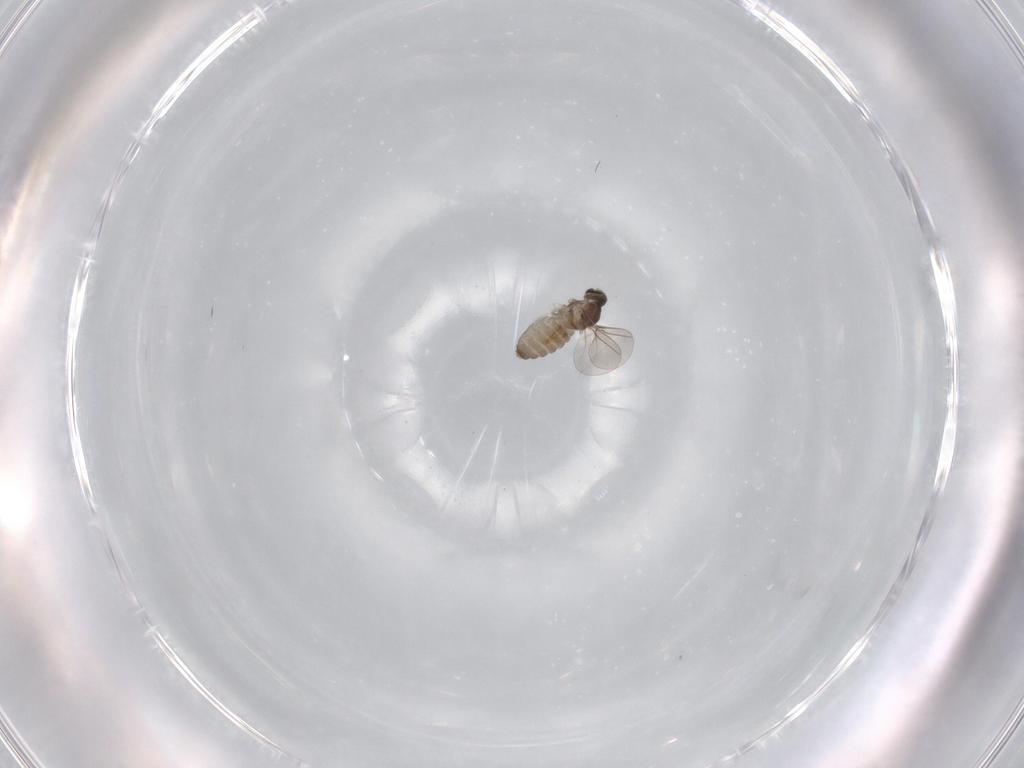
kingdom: Animalia
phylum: Arthropoda
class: Insecta
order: Diptera
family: Cecidomyiidae
